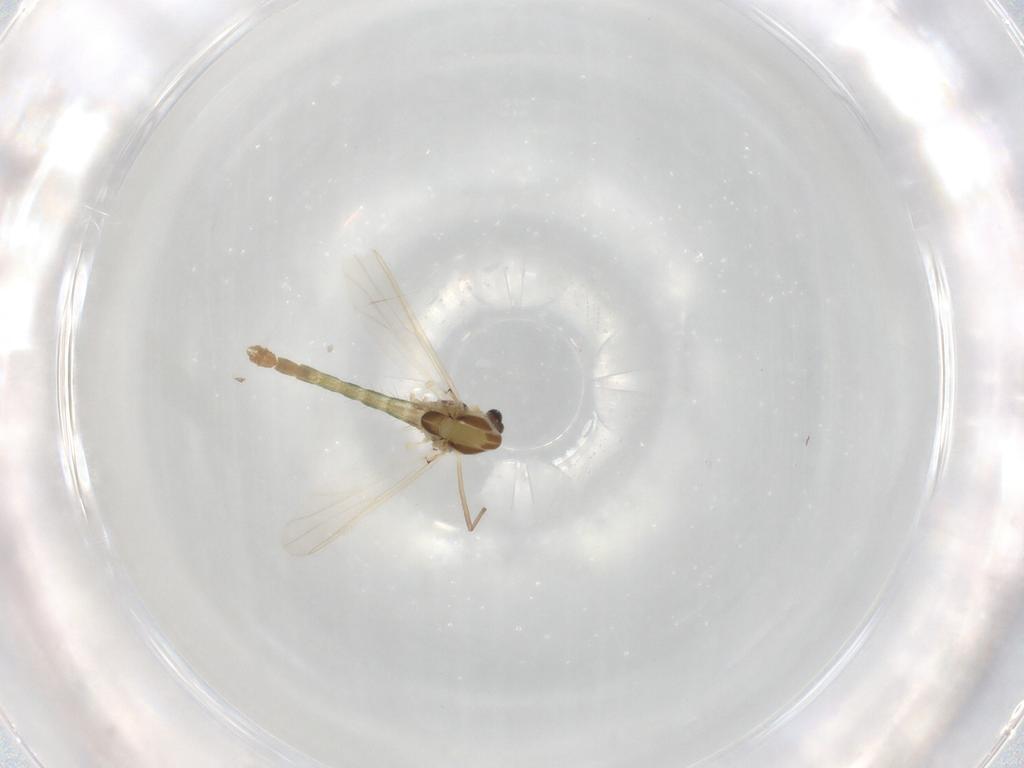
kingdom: Animalia
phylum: Arthropoda
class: Insecta
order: Diptera
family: Chironomidae
